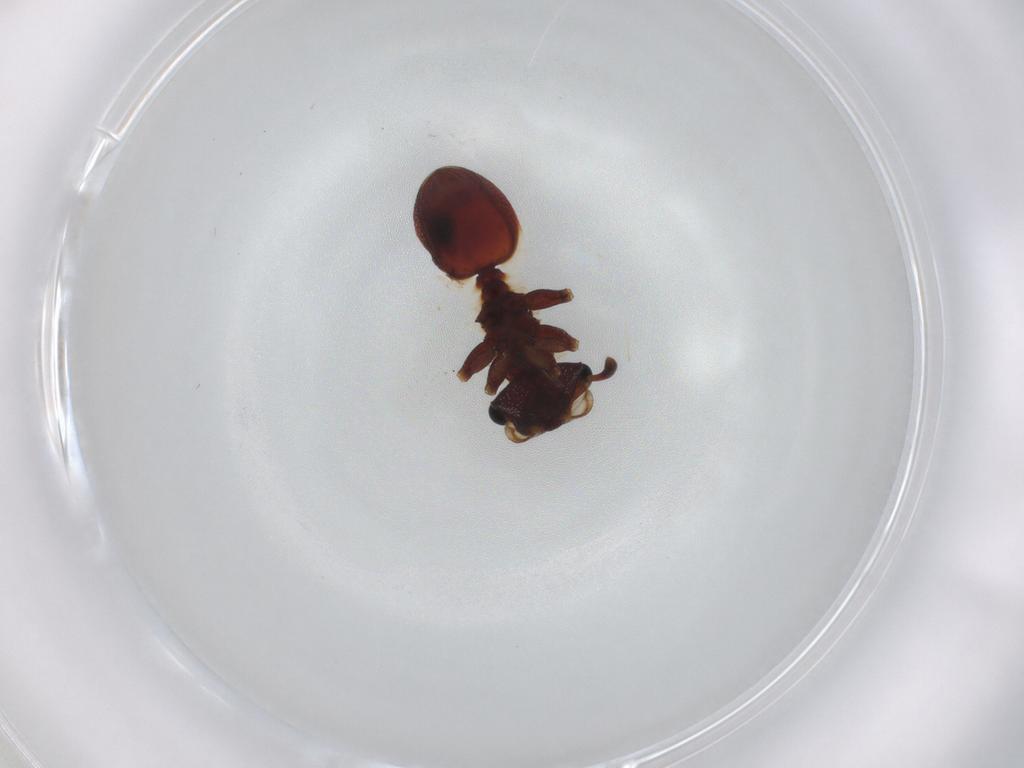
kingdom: Animalia
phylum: Arthropoda
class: Insecta
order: Hymenoptera
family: Formicidae
